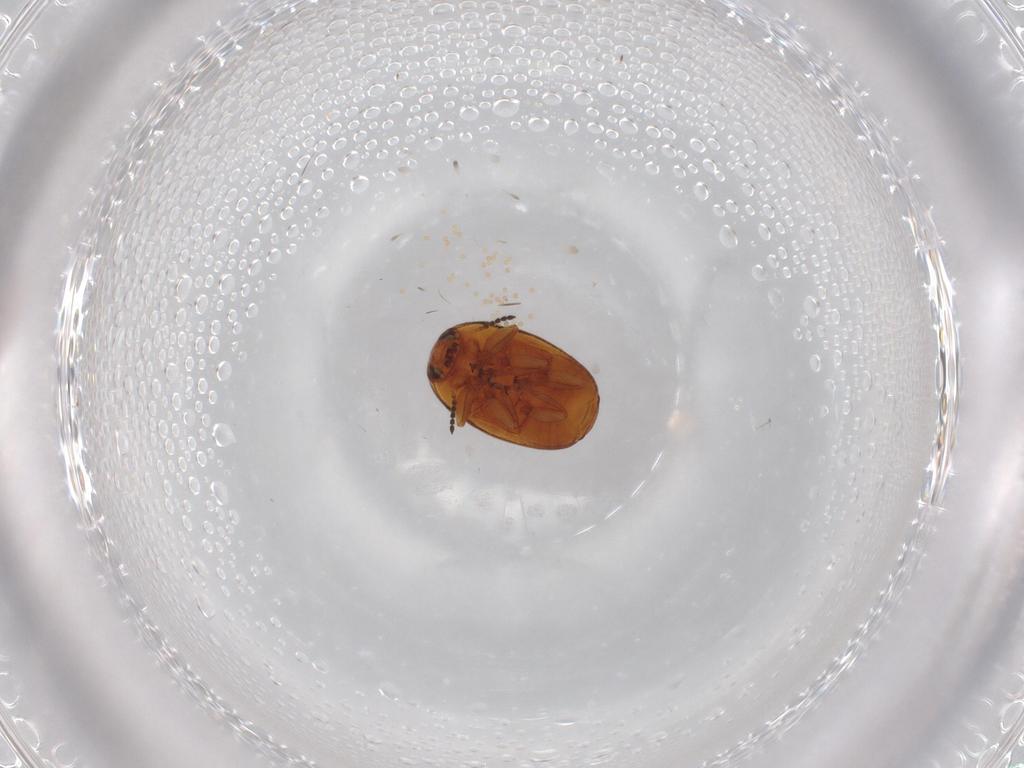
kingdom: Animalia
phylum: Arthropoda
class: Insecta
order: Coleoptera
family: Chrysomelidae
